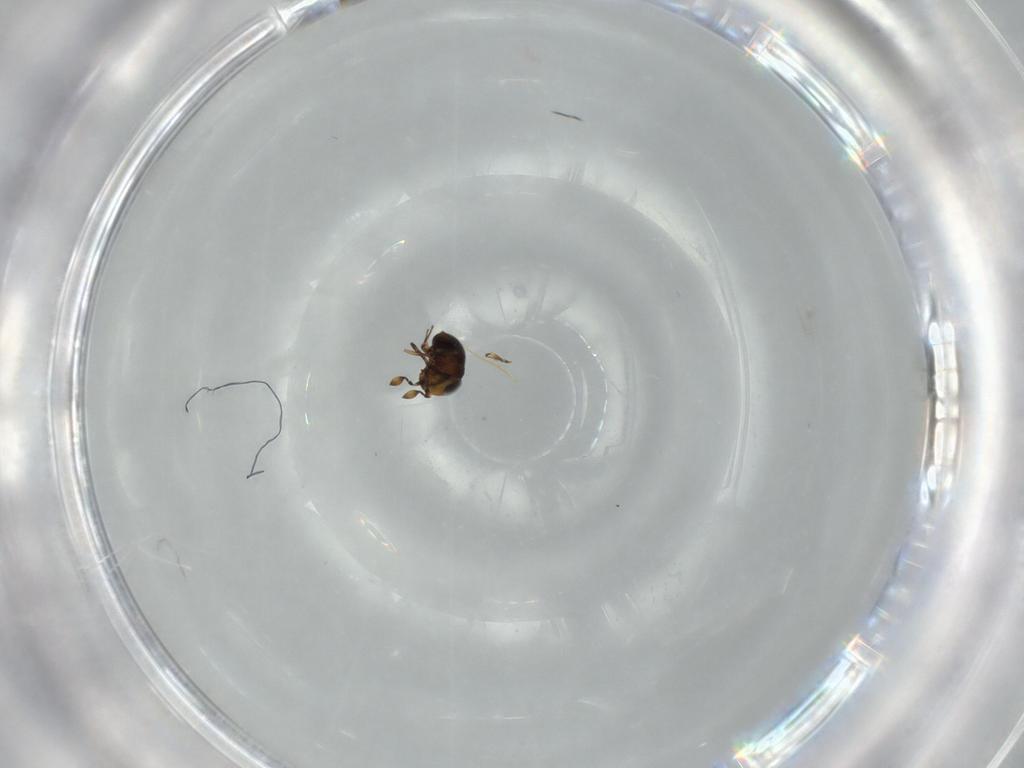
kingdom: Animalia
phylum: Arthropoda
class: Insecta
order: Hymenoptera
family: Scelionidae
